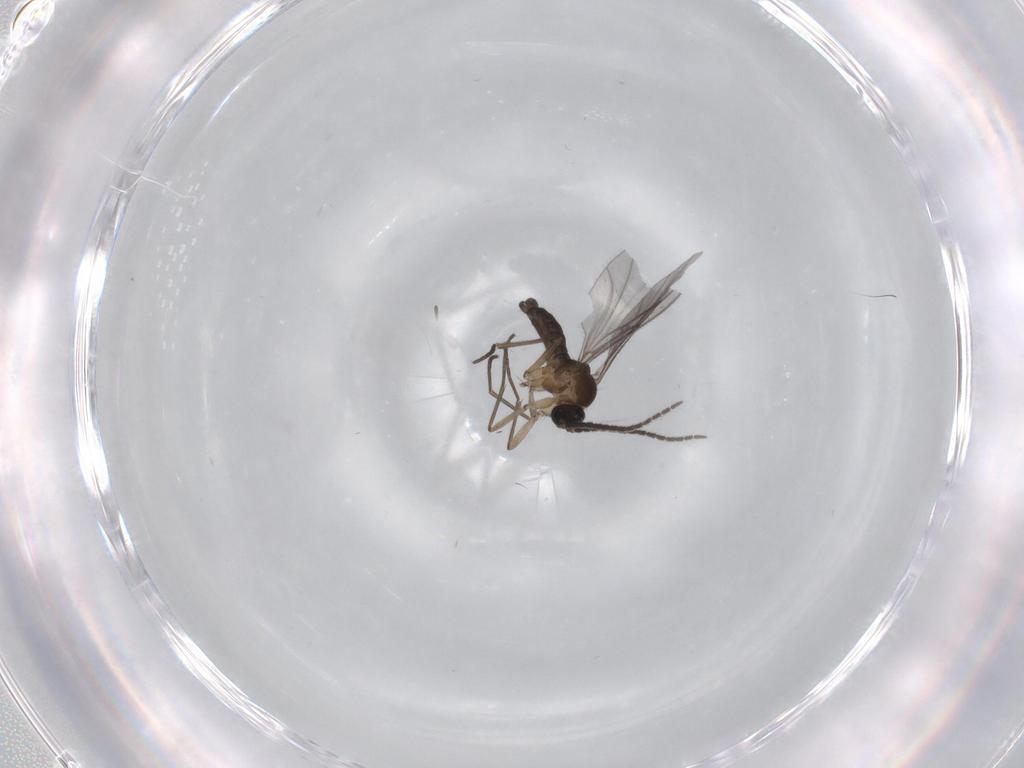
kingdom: Animalia
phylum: Arthropoda
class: Insecta
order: Diptera
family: Sciaridae
